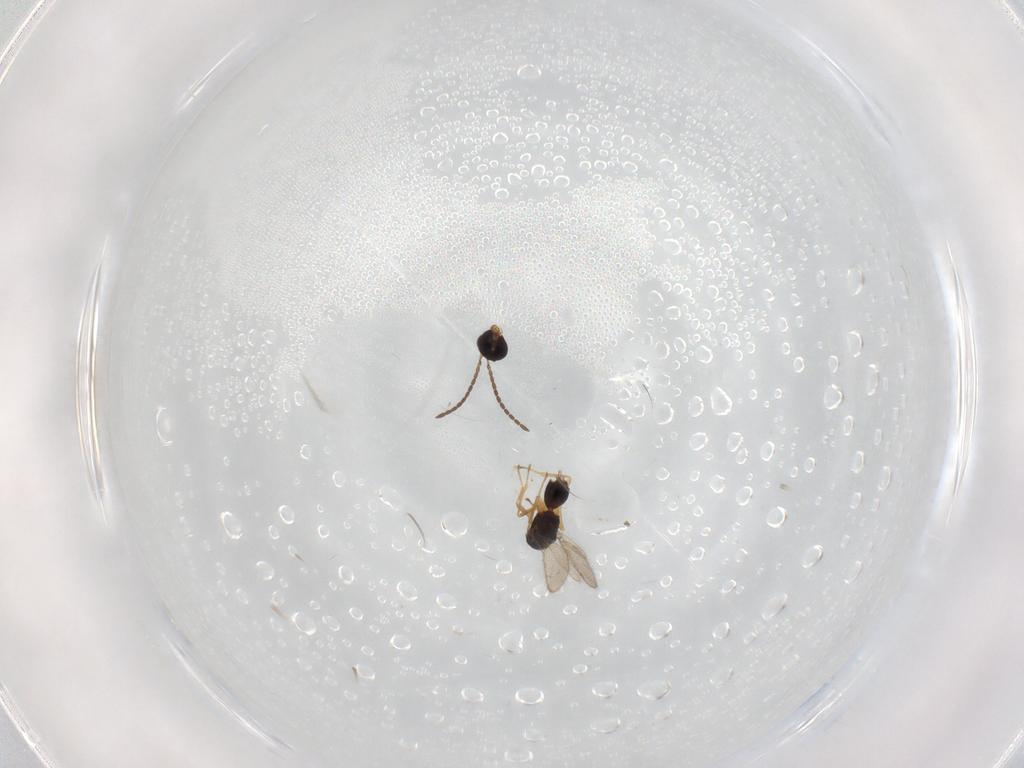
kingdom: Animalia
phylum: Arthropoda
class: Insecta
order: Hymenoptera
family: Diparidae
